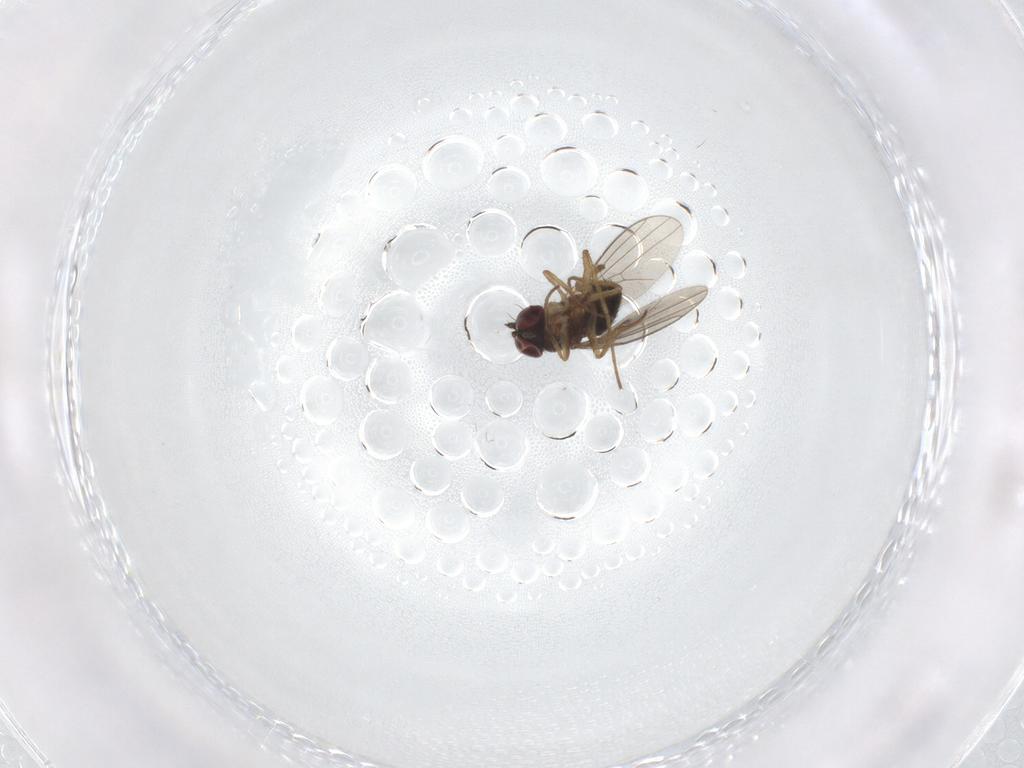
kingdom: Animalia
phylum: Arthropoda
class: Insecta
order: Diptera
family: Dolichopodidae
